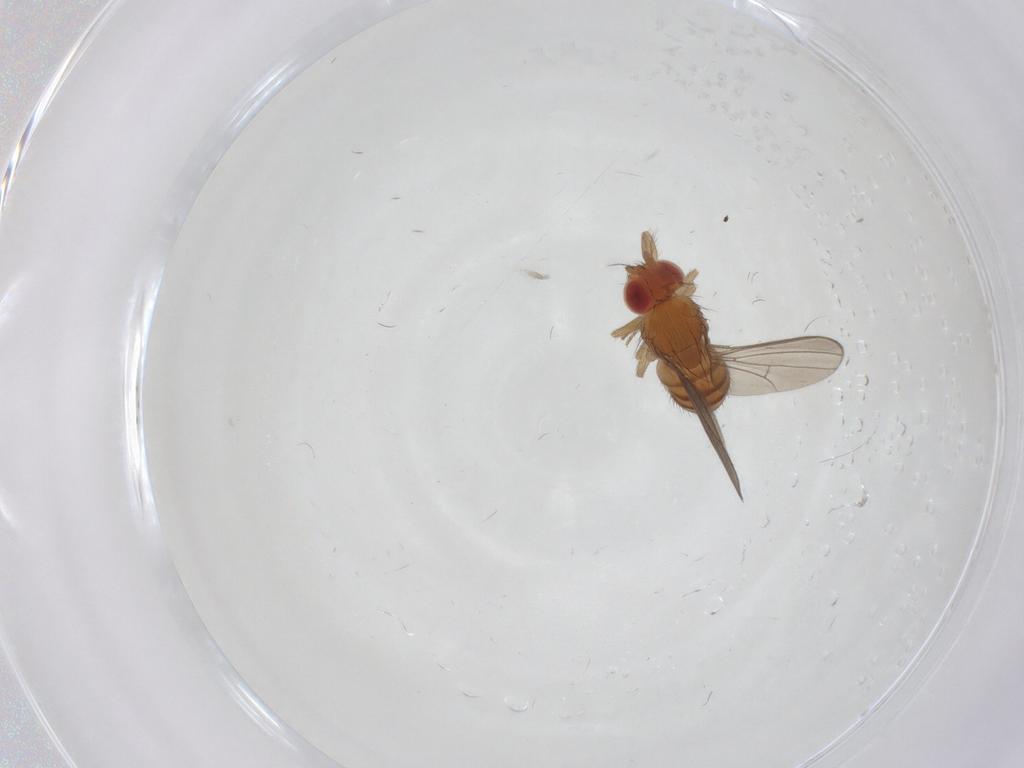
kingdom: Animalia
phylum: Arthropoda
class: Insecta
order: Diptera
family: Drosophilidae
